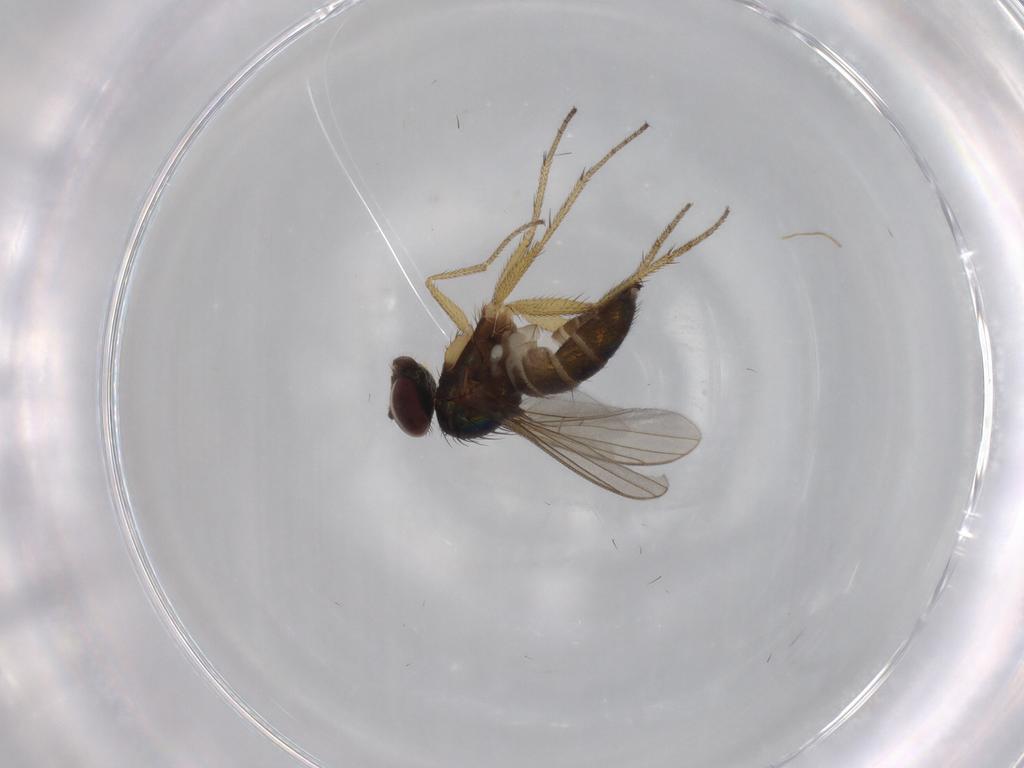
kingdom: Animalia
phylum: Arthropoda
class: Insecta
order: Diptera
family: Dolichopodidae
